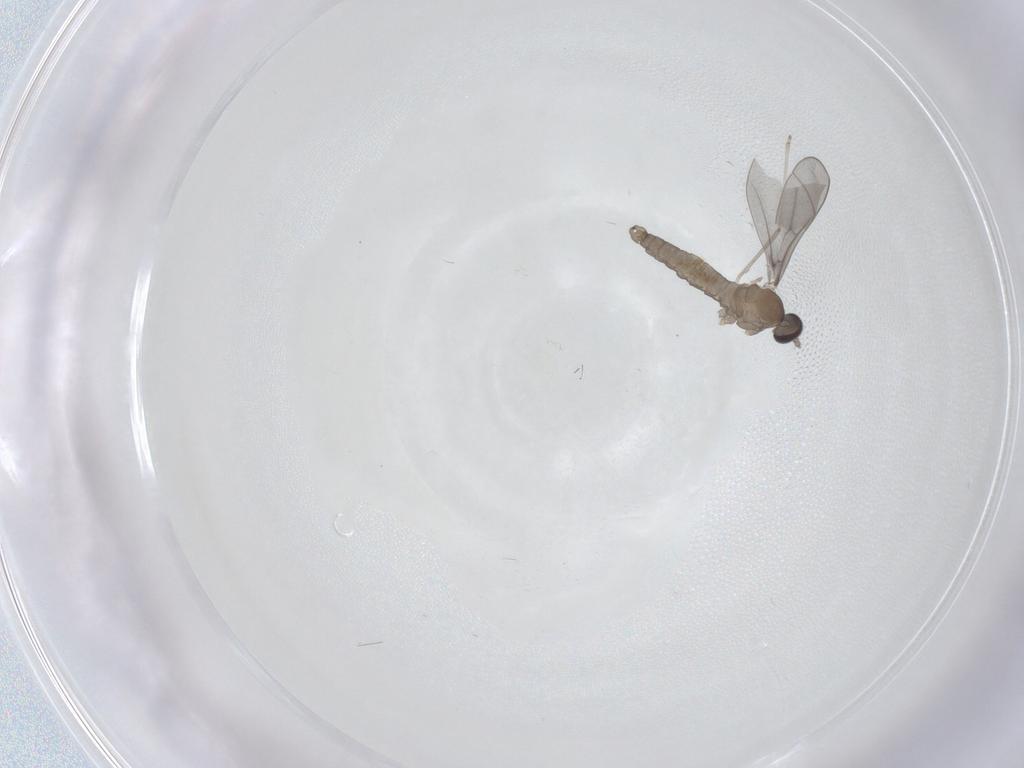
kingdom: Animalia
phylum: Arthropoda
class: Insecta
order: Diptera
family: Cecidomyiidae
